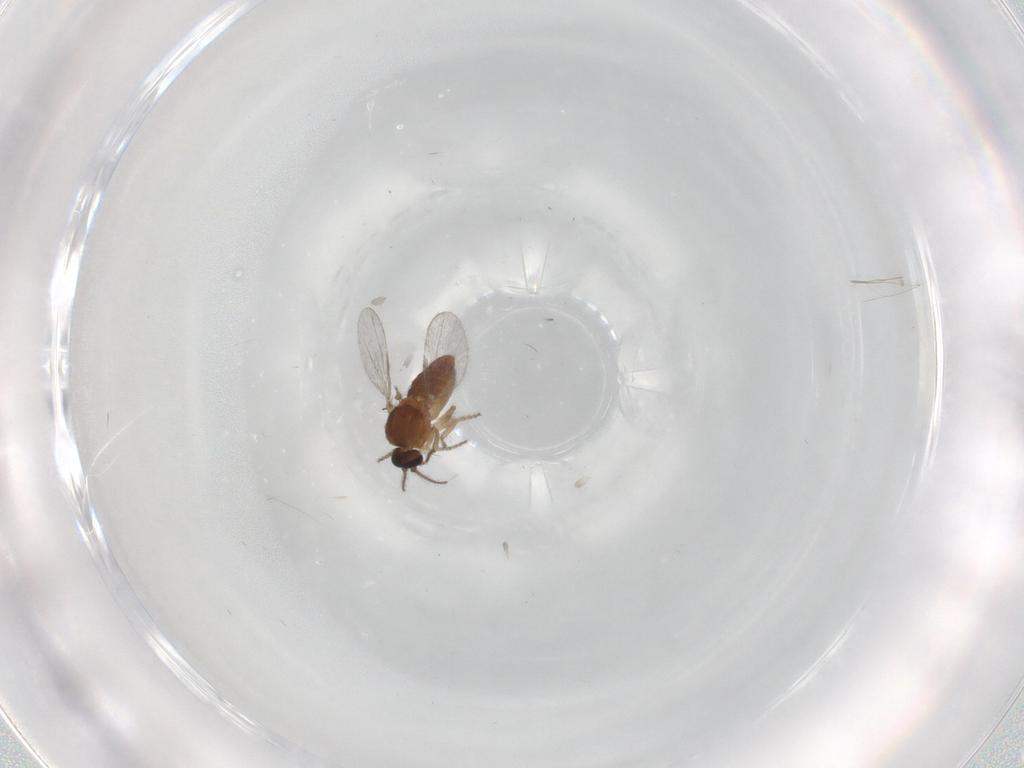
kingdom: Animalia
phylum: Arthropoda
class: Insecta
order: Diptera
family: Ceratopogonidae
